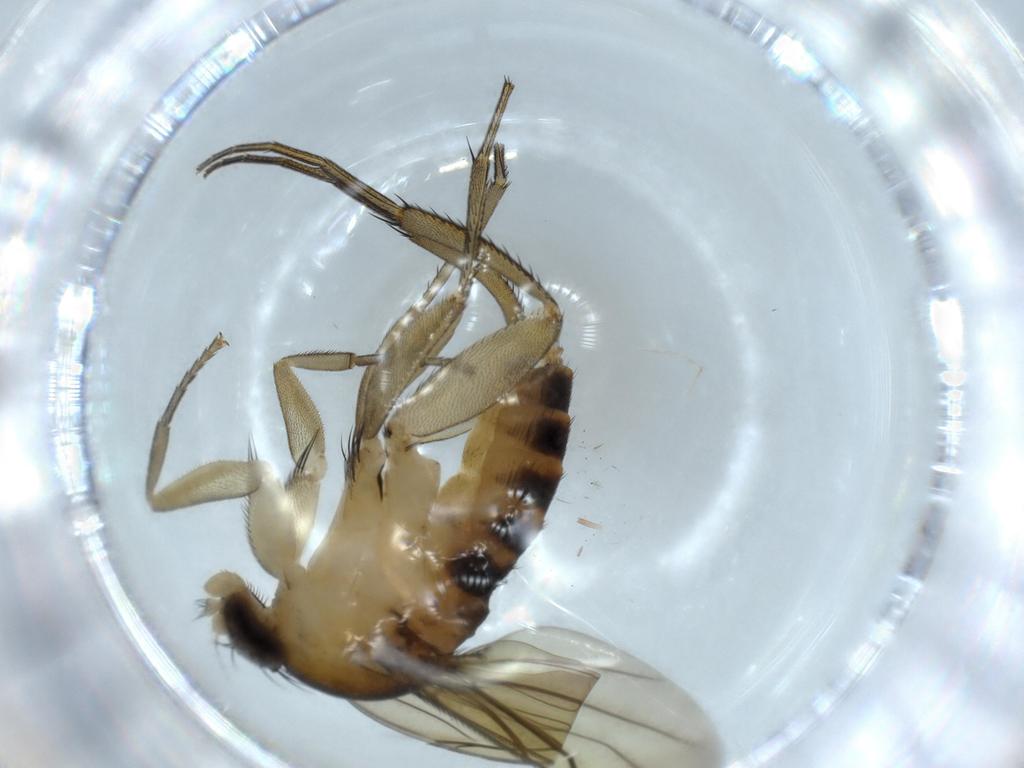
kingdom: Animalia
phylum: Arthropoda
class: Insecta
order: Diptera
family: Phoridae
